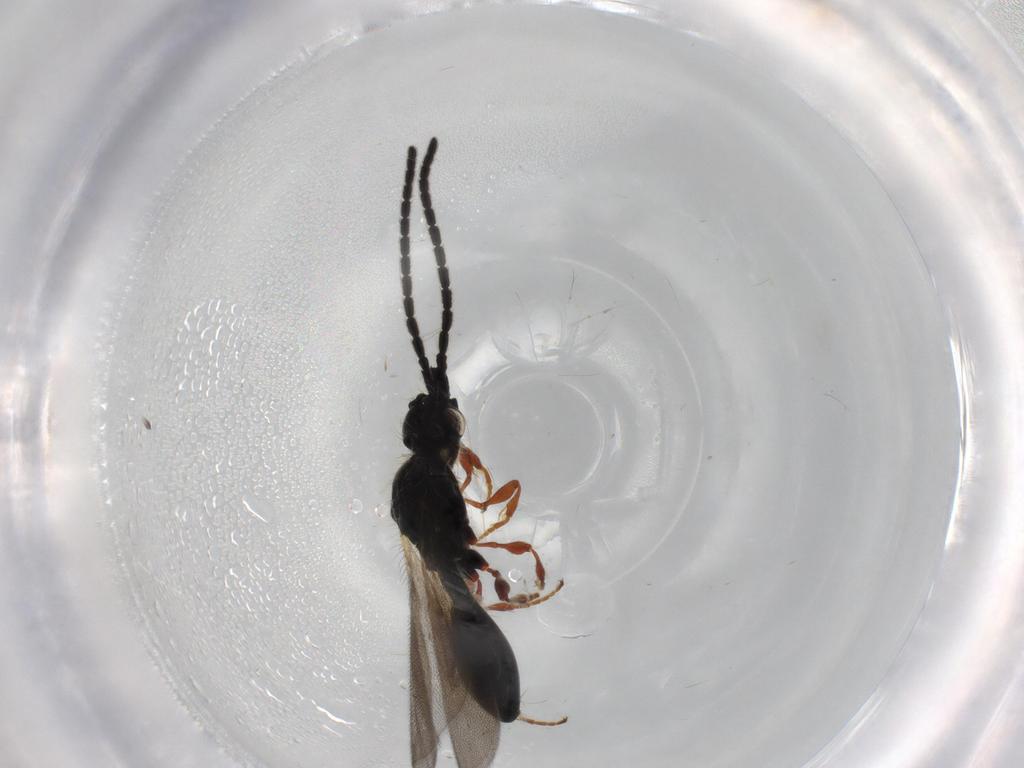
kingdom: Animalia
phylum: Arthropoda
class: Insecta
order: Hymenoptera
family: Diapriidae
